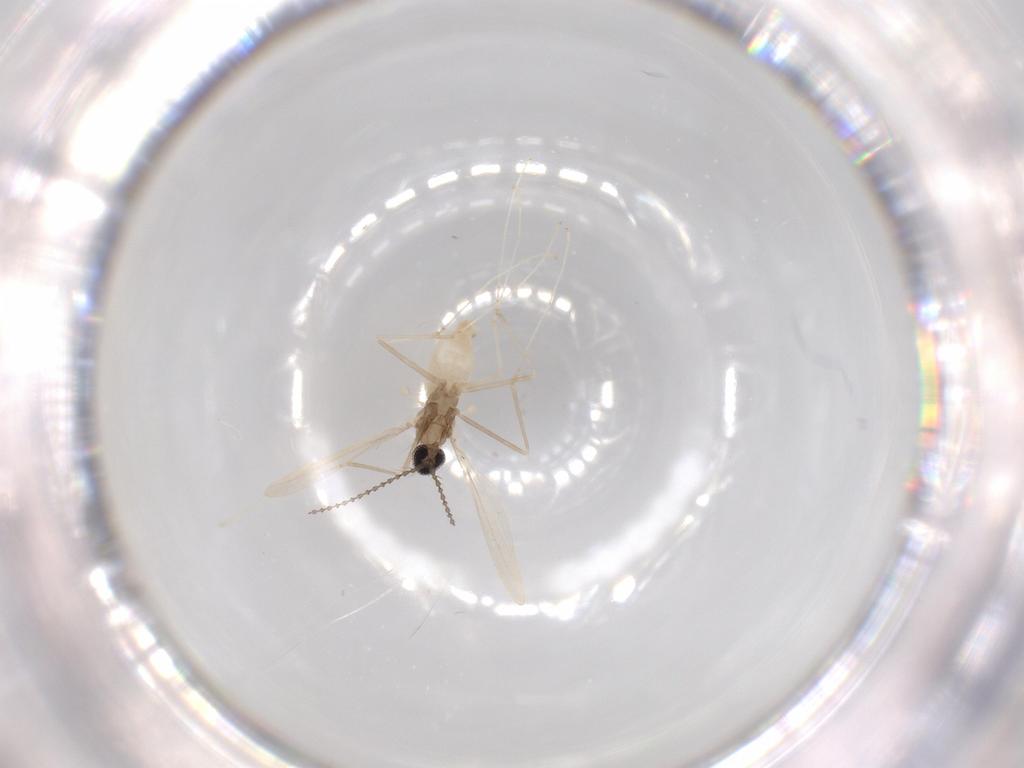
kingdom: Animalia
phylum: Arthropoda
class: Insecta
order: Diptera
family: Cecidomyiidae
